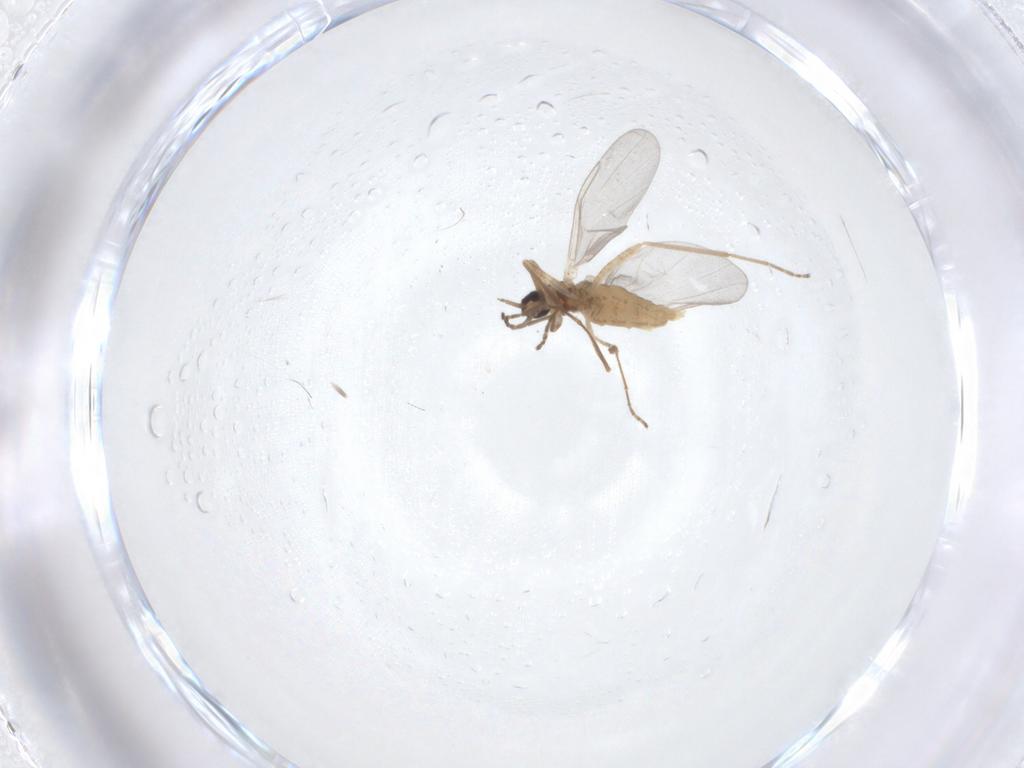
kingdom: Animalia
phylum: Arthropoda
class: Insecta
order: Diptera
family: Cecidomyiidae
